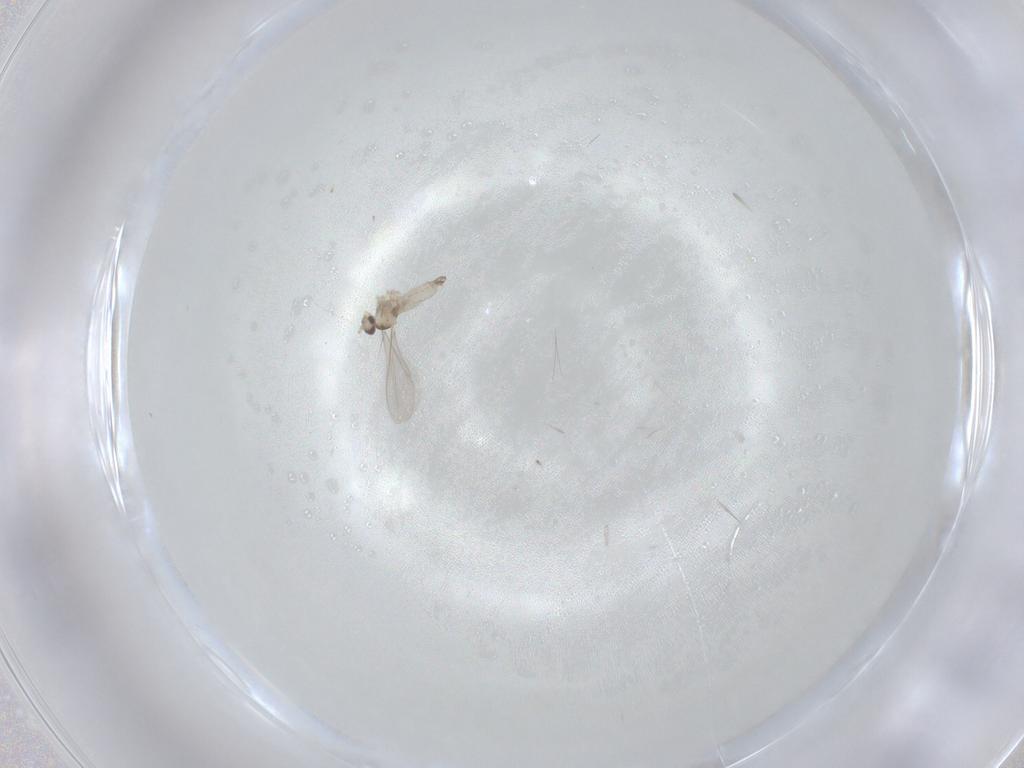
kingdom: Animalia
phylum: Arthropoda
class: Insecta
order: Diptera
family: Cecidomyiidae
